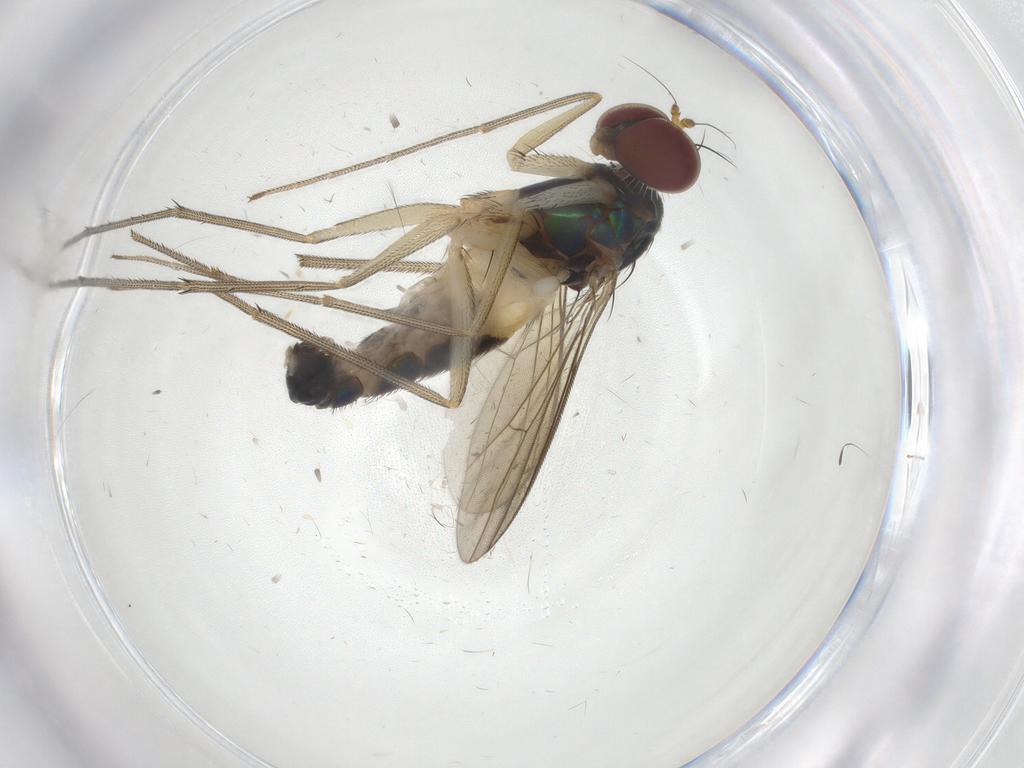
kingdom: Animalia
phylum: Arthropoda
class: Insecta
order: Diptera
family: Dolichopodidae
